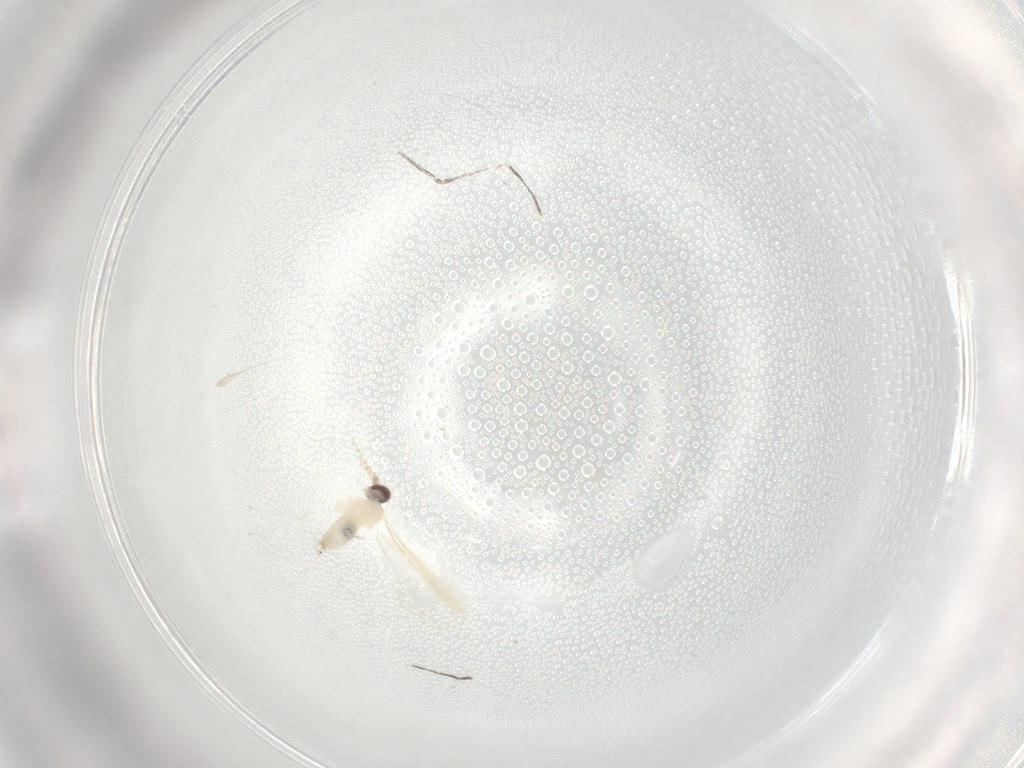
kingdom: Animalia
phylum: Arthropoda
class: Insecta
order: Diptera
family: Cecidomyiidae
